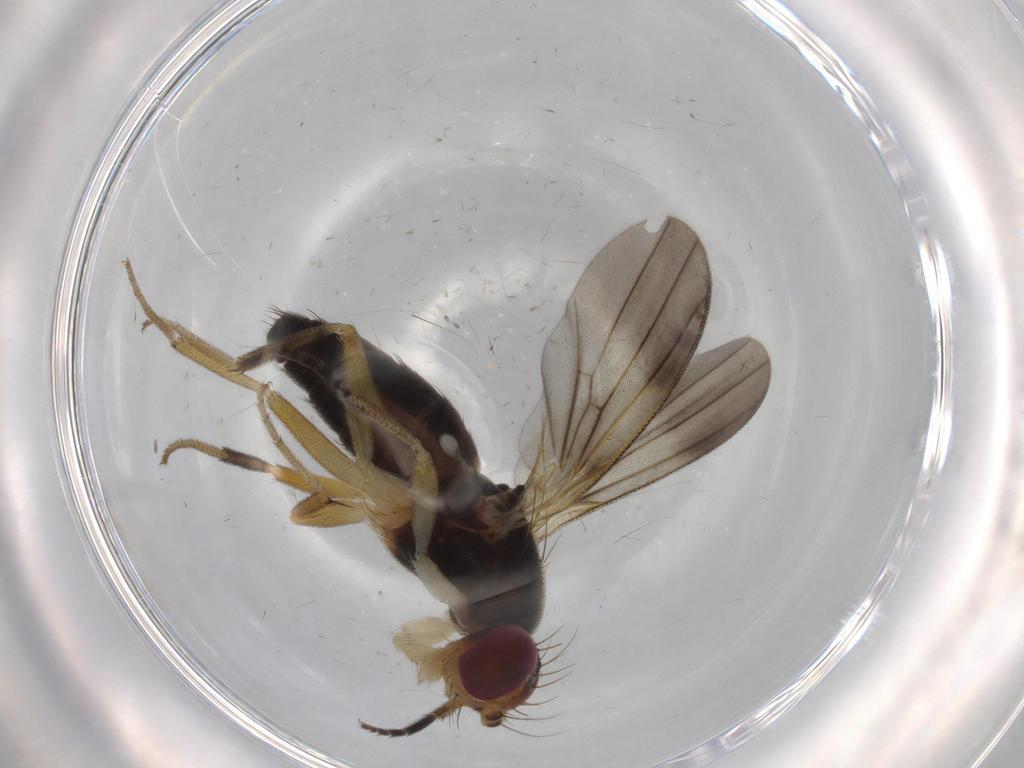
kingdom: Animalia
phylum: Arthropoda
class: Insecta
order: Diptera
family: Clusiidae
